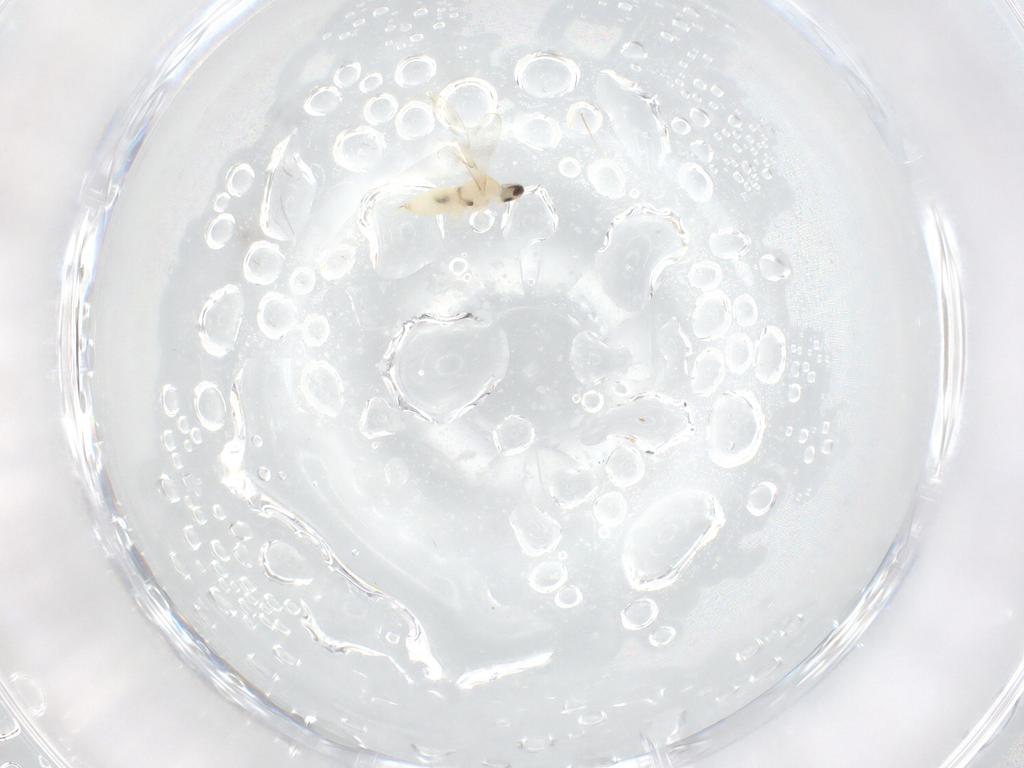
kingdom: Animalia
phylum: Arthropoda
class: Insecta
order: Diptera
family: Cecidomyiidae
